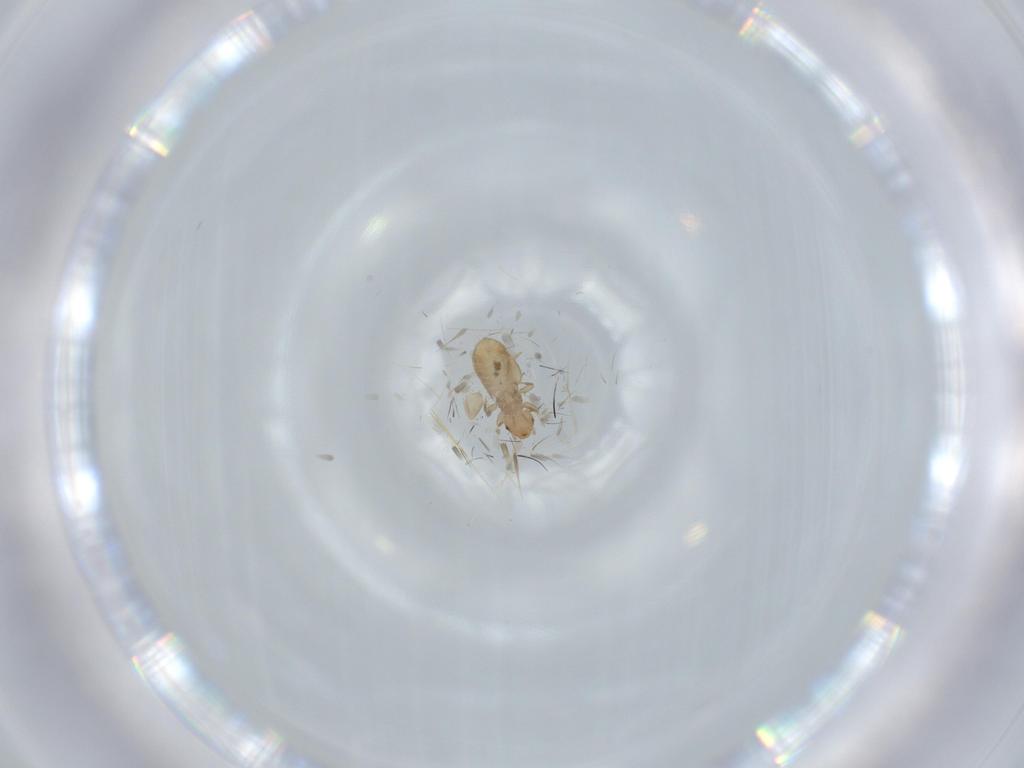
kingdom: Animalia
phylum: Arthropoda
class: Insecta
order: Psocodea
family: Liposcelididae
